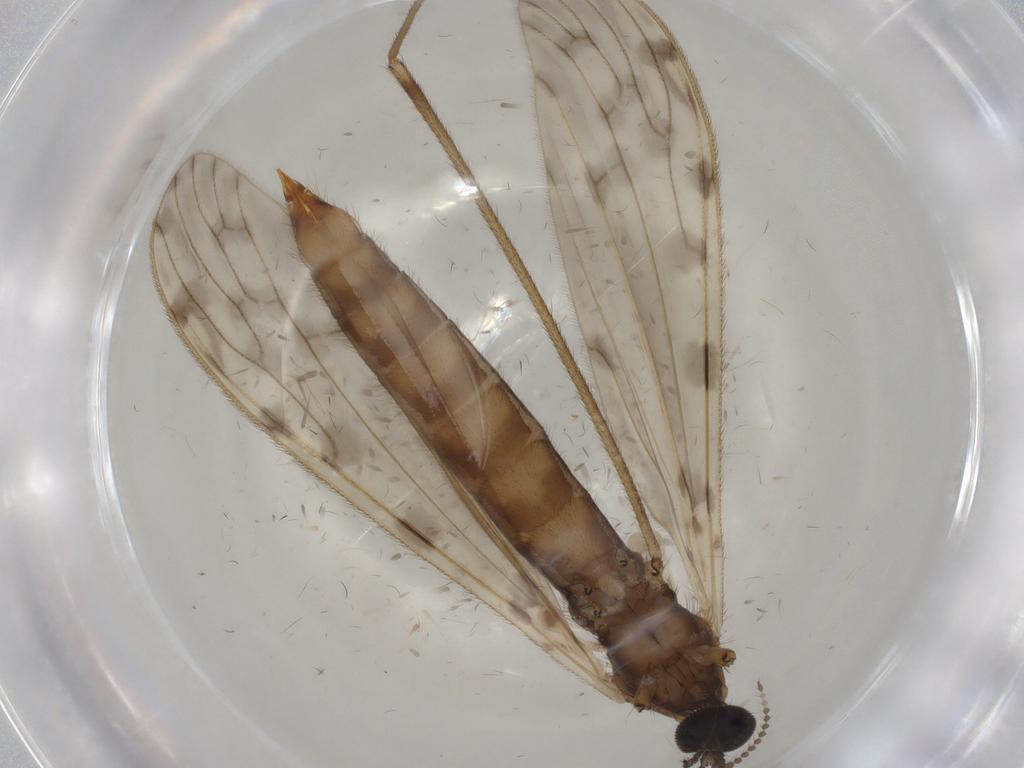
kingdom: Animalia
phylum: Arthropoda
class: Insecta
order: Diptera
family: Limoniidae
